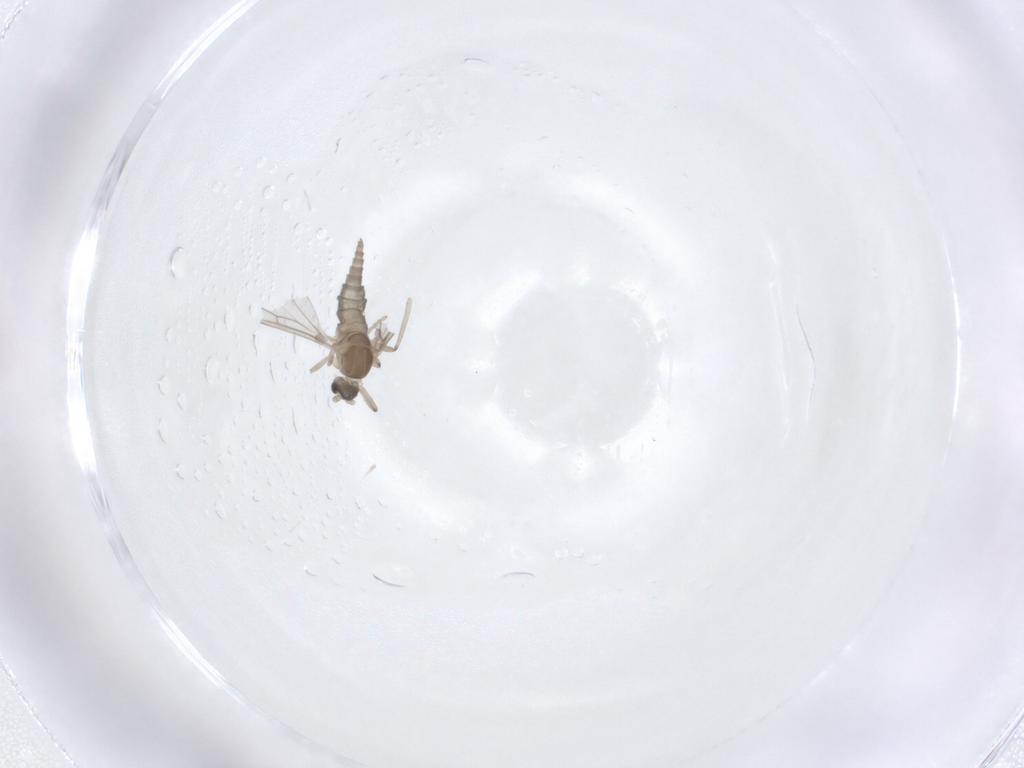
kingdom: Animalia
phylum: Arthropoda
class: Insecta
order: Diptera
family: Cecidomyiidae
